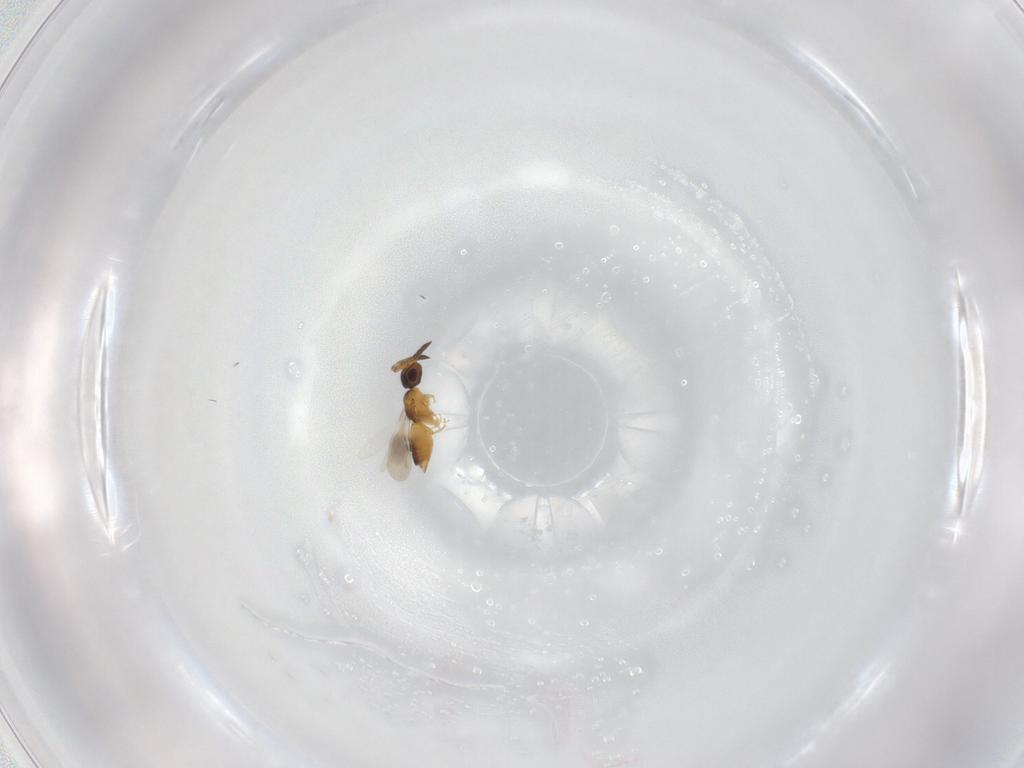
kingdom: Animalia
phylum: Arthropoda
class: Insecta
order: Hymenoptera
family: Ceraphronidae
